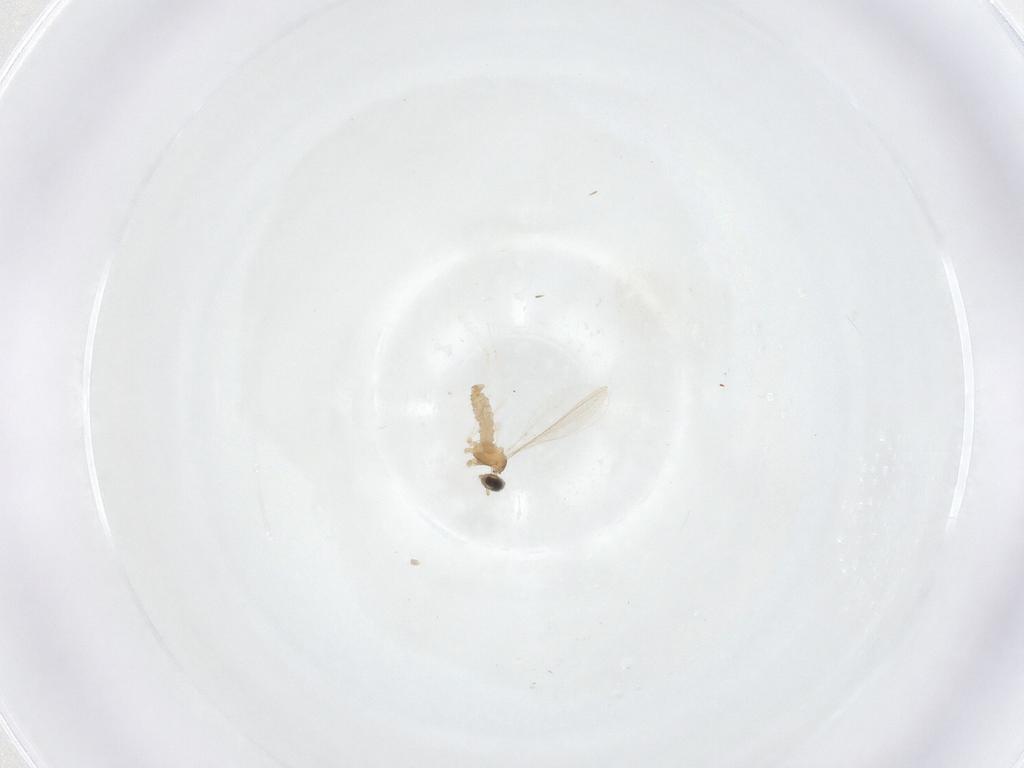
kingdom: Animalia
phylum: Arthropoda
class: Insecta
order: Diptera
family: Cecidomyiidae
